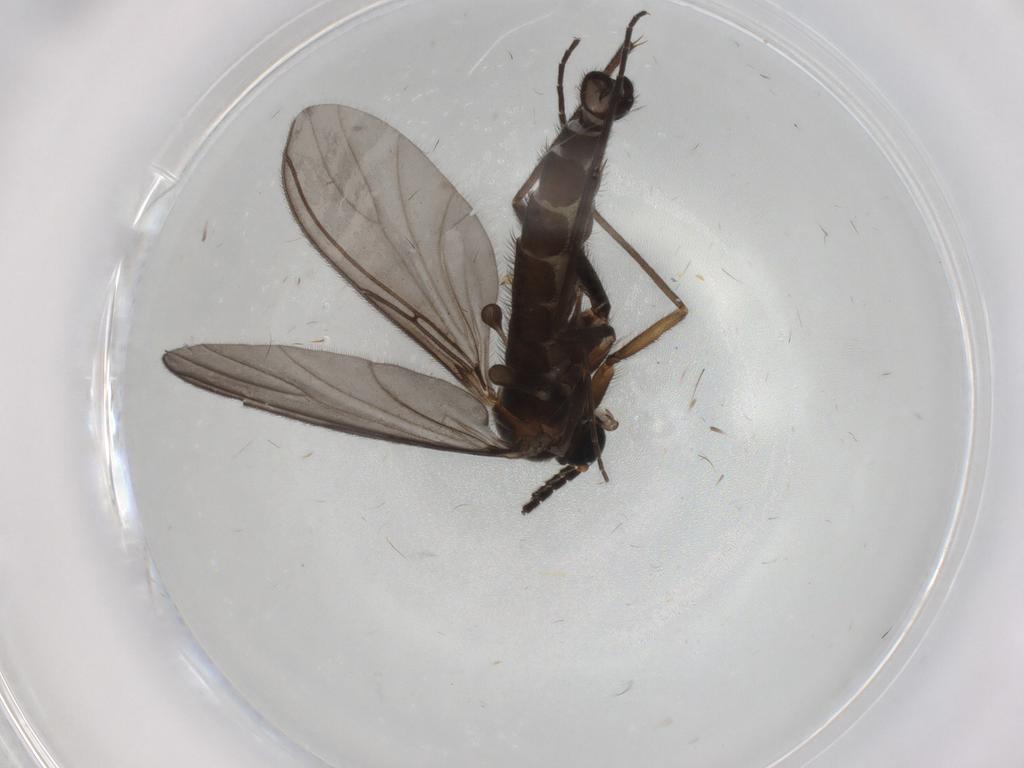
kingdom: Animalia
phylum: Arthropoda
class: Insecta
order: Diptera
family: Sciaridae
